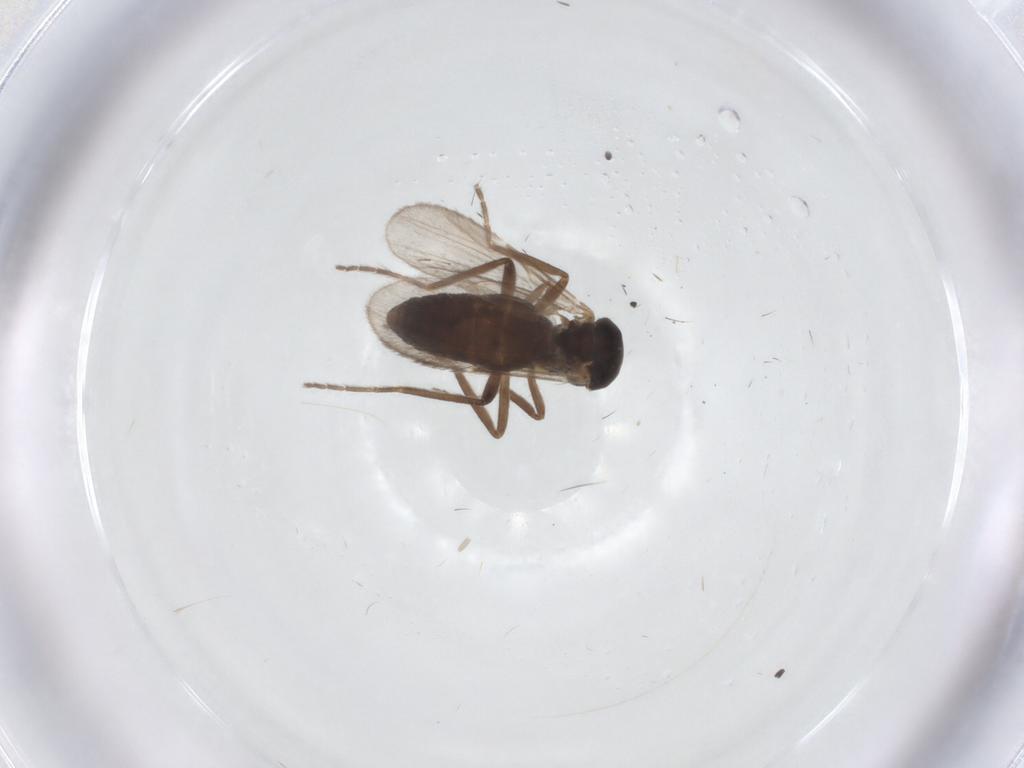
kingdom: Animalia
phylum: Arthropoda
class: Insecta
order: Diptera
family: Ceratopogonidae
